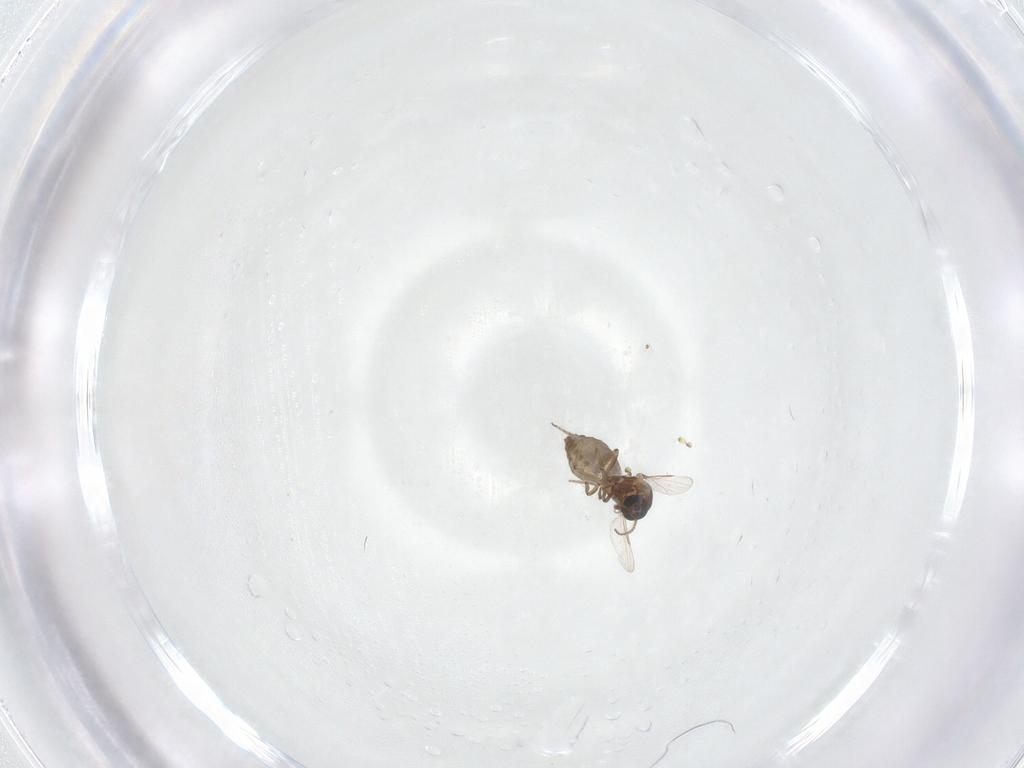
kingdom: Animalia
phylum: Arthropoda
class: Insecta
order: Diptera
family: Ceratopogonidae
